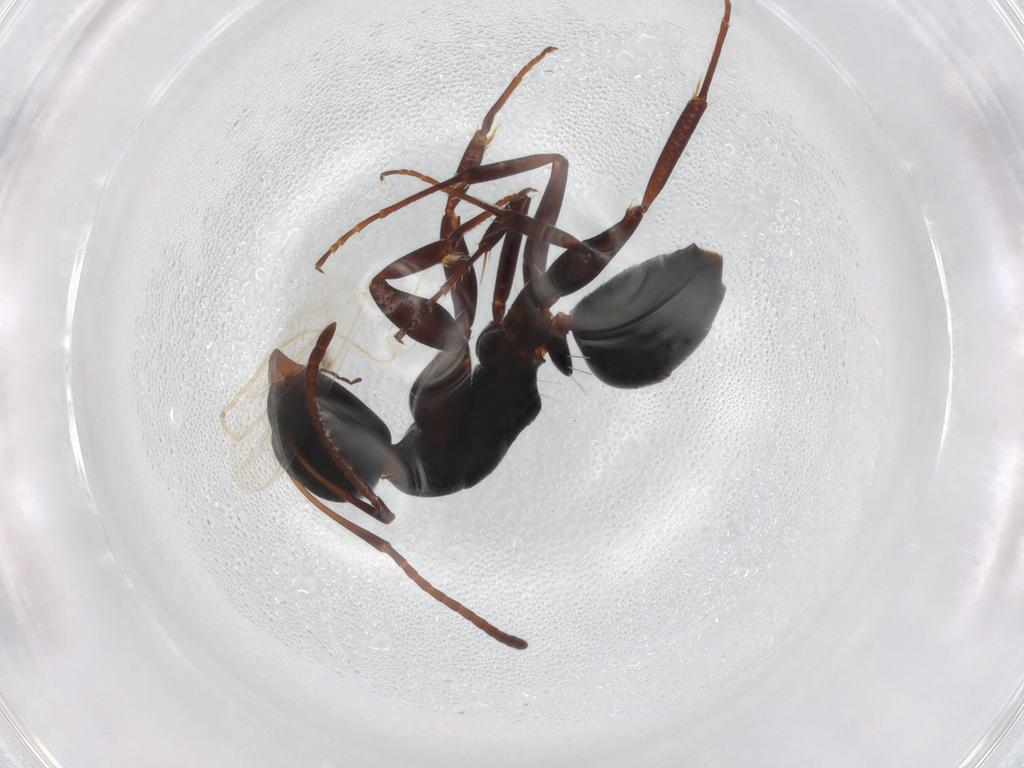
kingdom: Animalia
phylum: Arthropoda
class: Insecta
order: Hymenoptera
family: Formicidae
